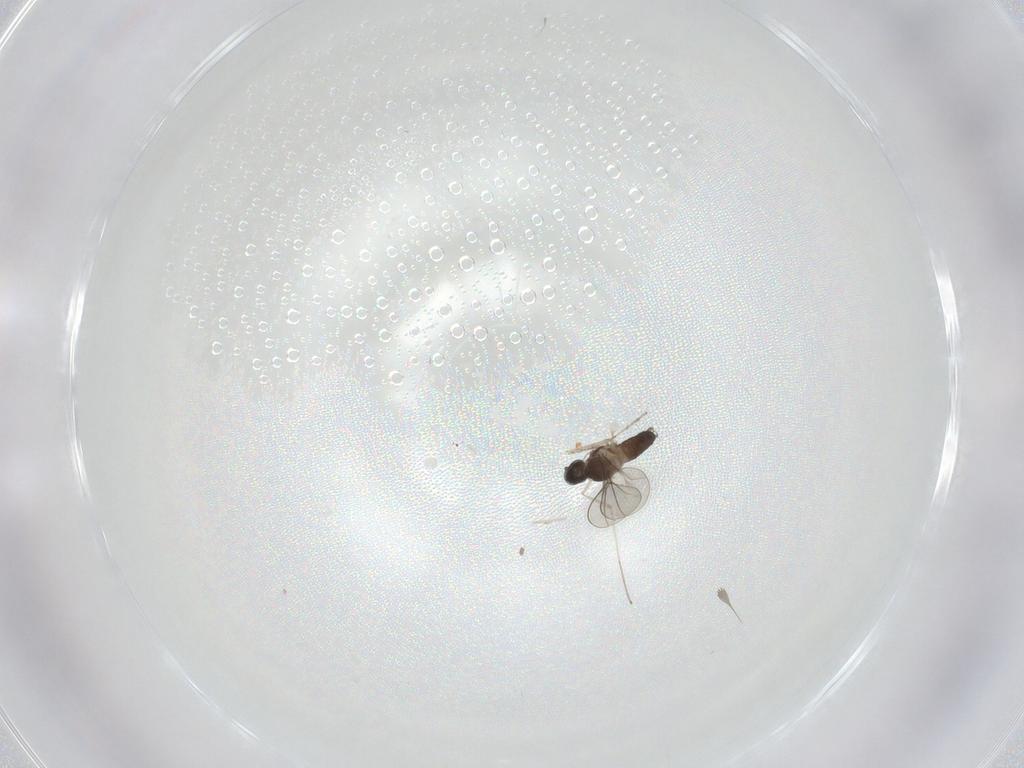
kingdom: Animalia
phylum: Arthropoda
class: Insecta
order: Diptera
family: Cecidomyiidae
